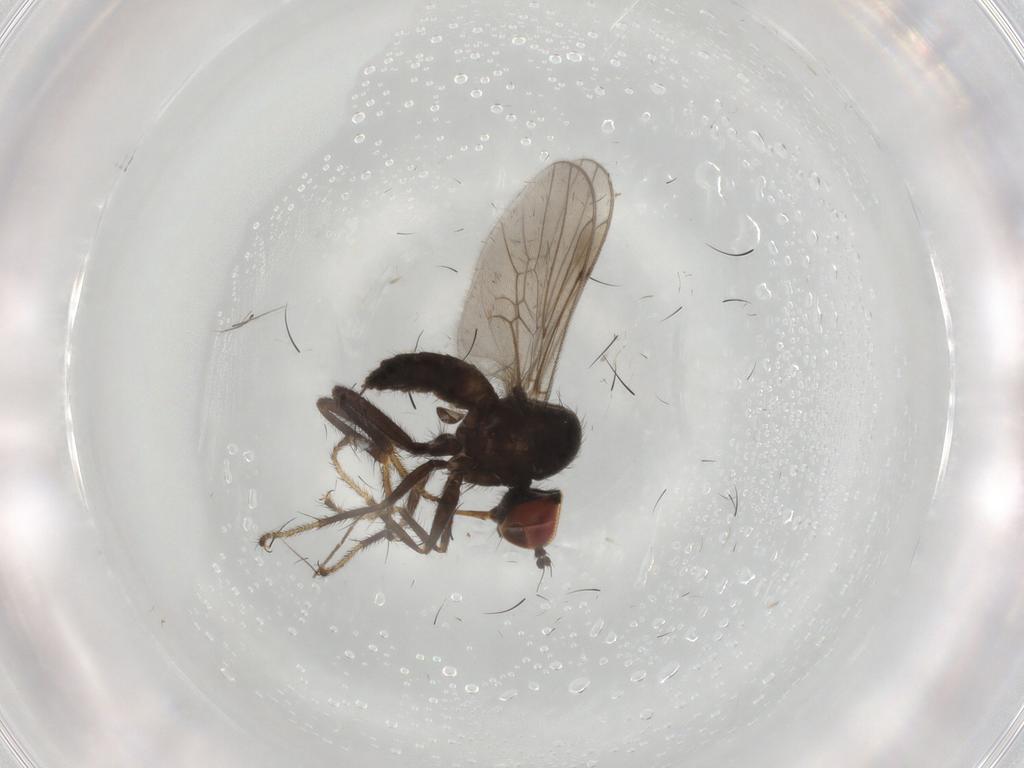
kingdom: Animalia
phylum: Arthropoda
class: Insecta
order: Diptera
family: Hybotidae
